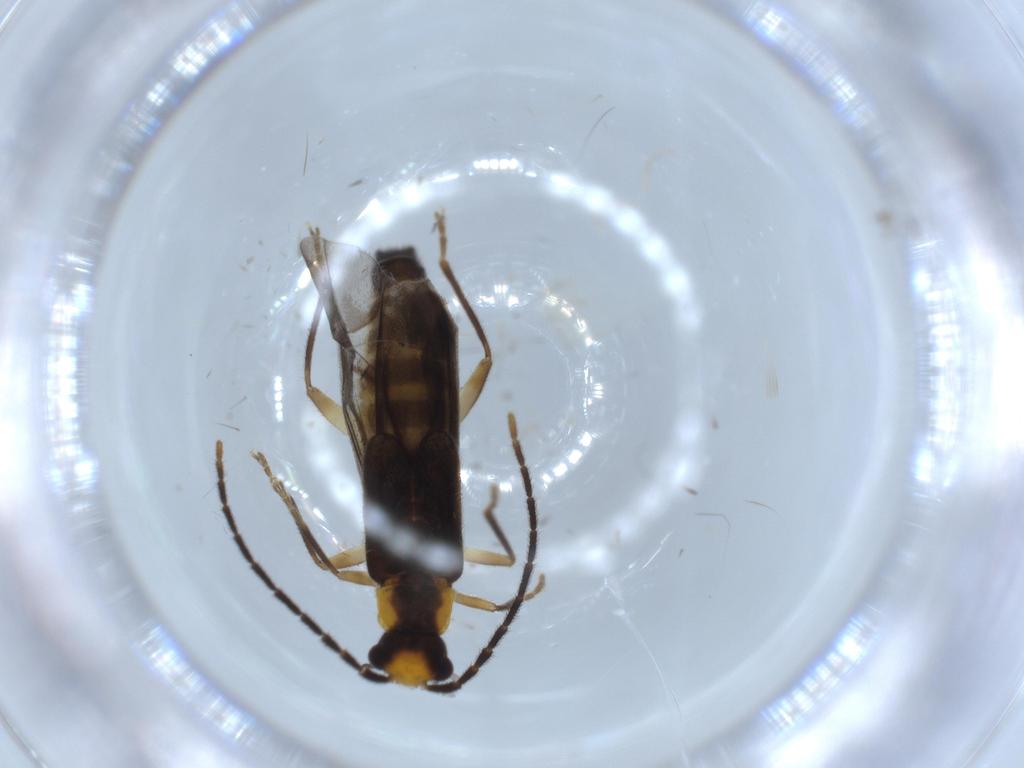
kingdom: Animalia
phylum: Arthropoda
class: Insecta
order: Coleoptera
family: Cantharidae
